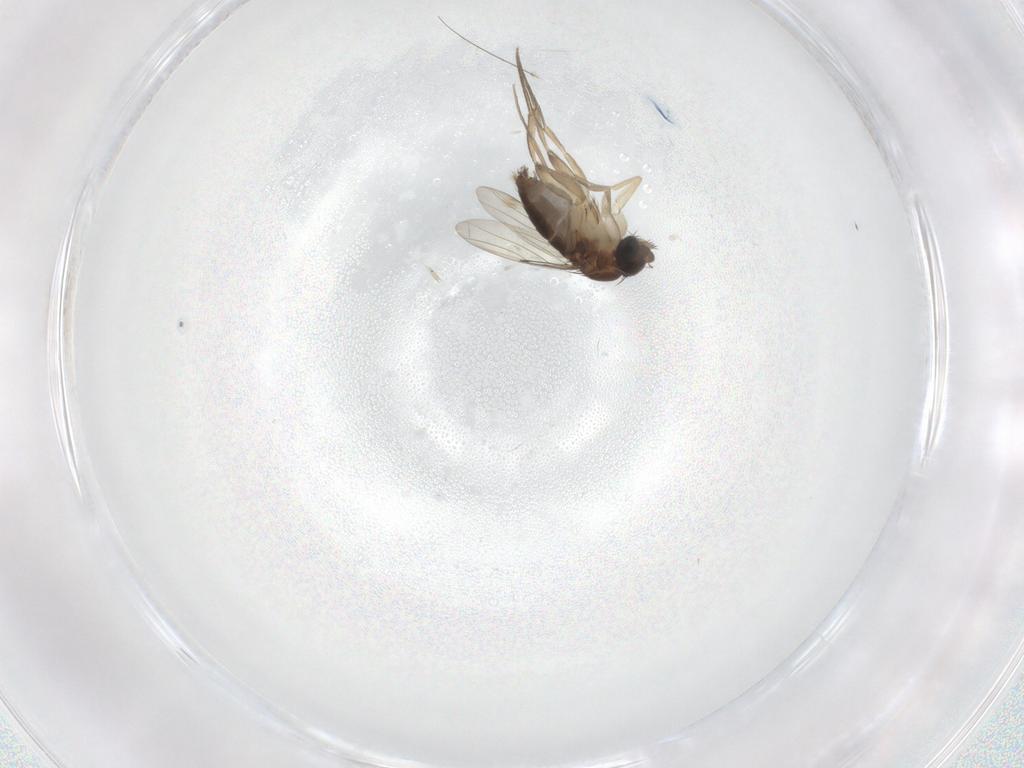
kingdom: Animalia
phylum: Arthropoda
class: Insecta
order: Diptera
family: Phoridae
